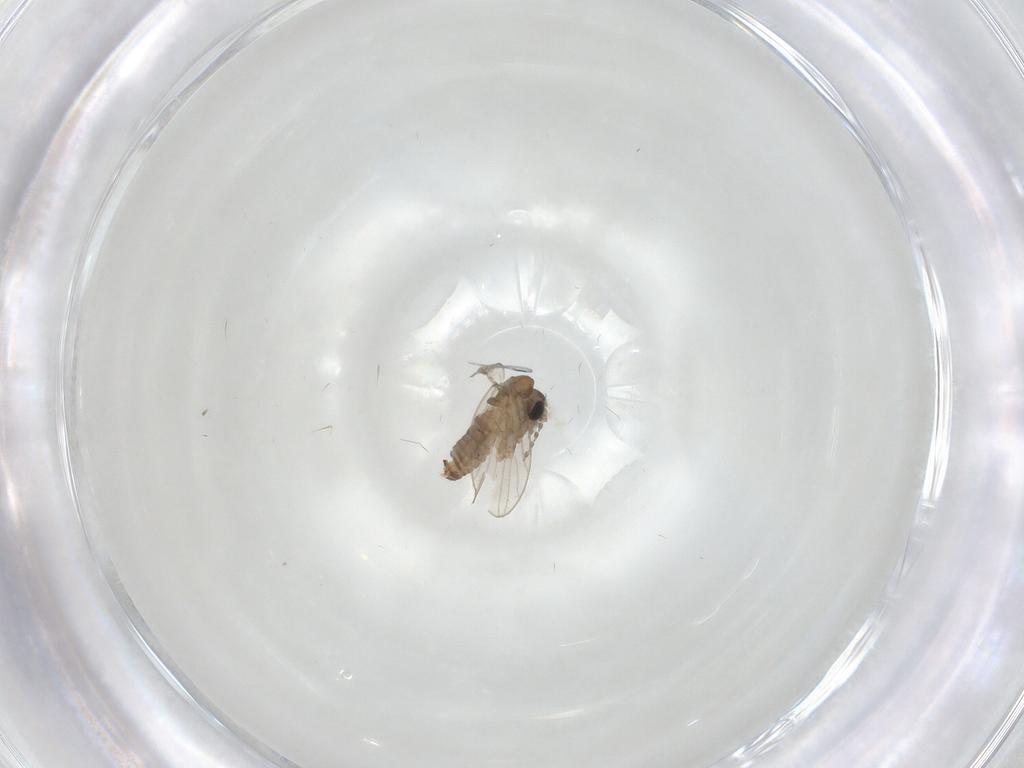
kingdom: Animalia
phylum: Arthropoda
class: Insecta
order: Diptera
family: Psychodidae
